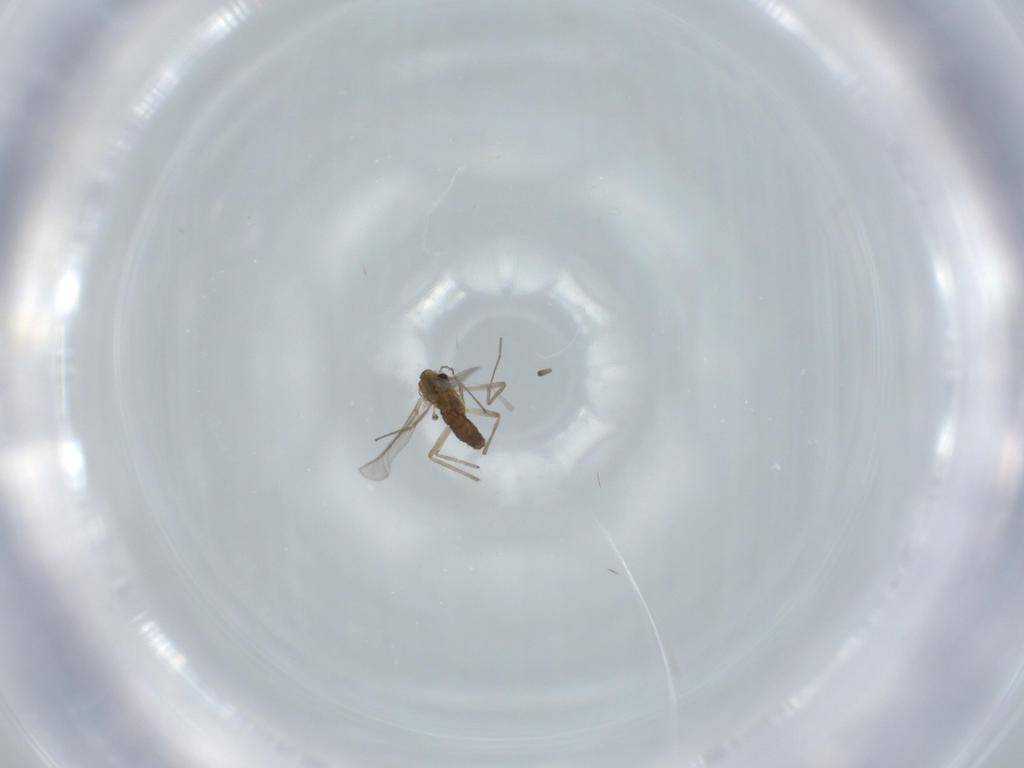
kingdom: Animalia
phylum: Arthropoda
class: Insecta
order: Diptera
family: Chironomidae
